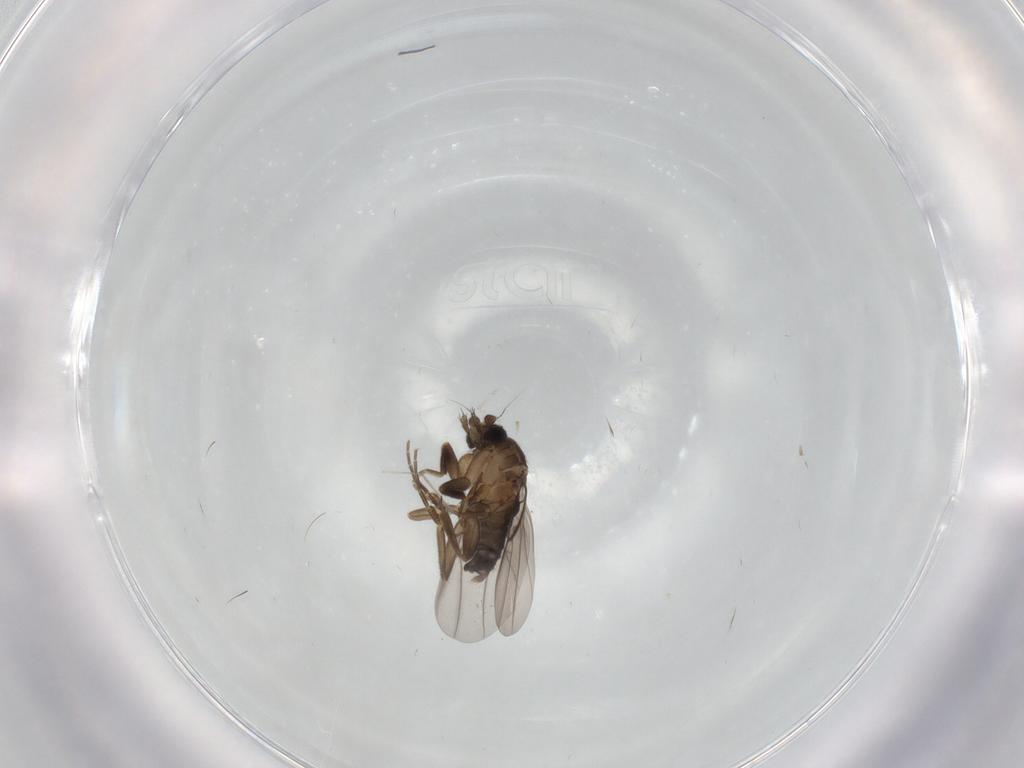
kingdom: Animalia
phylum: Arthropoda
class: Insecta
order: Diptera
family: Cecidomyiidae
